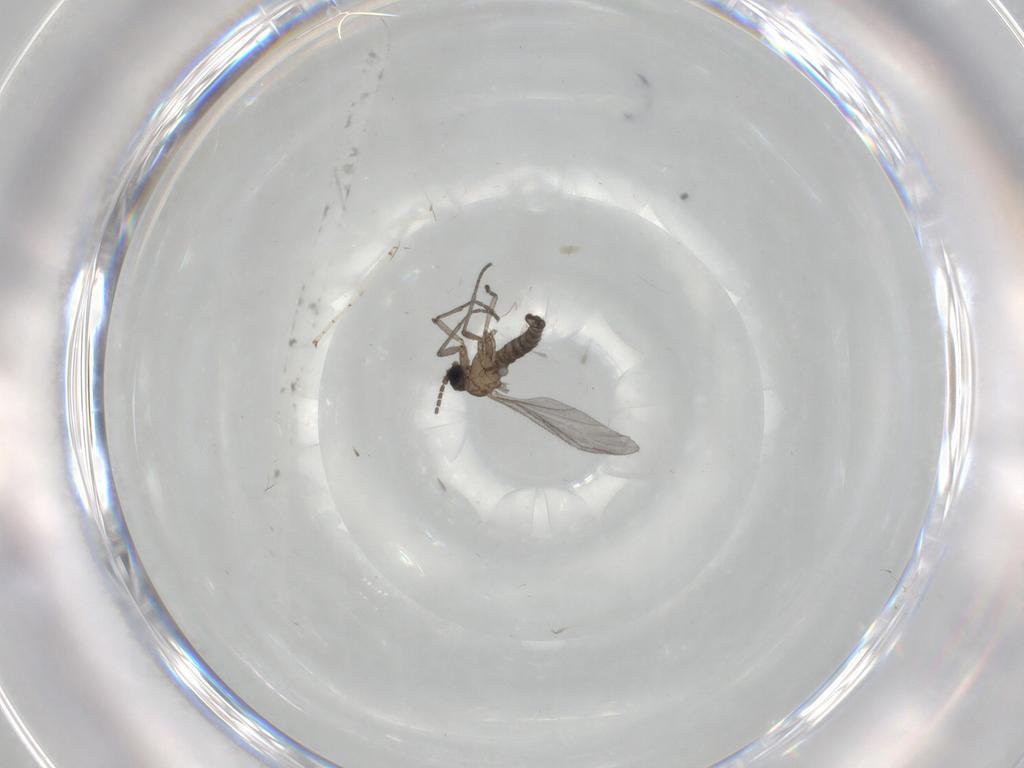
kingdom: Animalia
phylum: Arthropoda
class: Insecta
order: Diptera
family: Sciaridae
